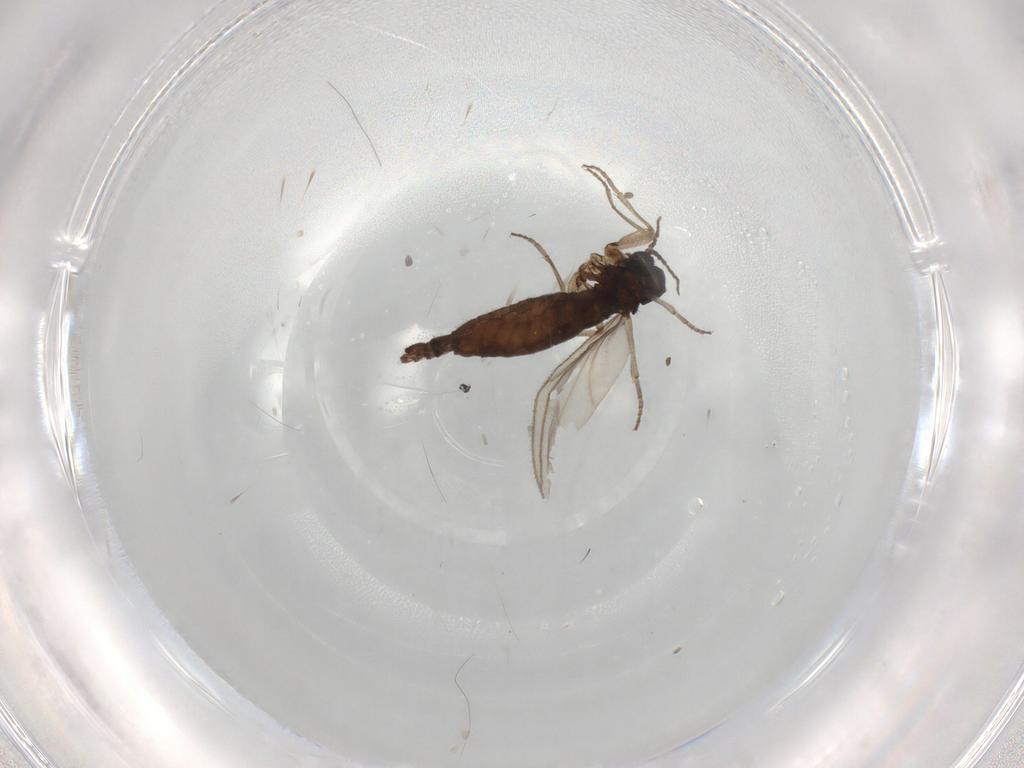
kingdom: Animalia
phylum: Arthropoda
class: Insecta
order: Diptera
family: Sciaridae
